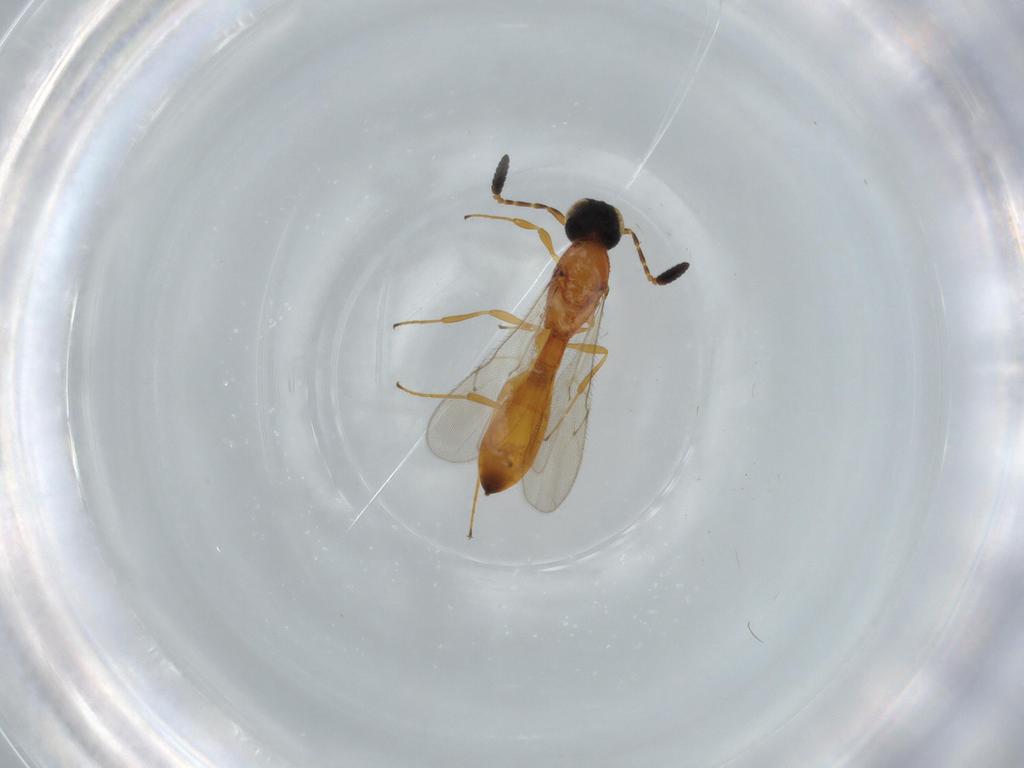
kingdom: Animalia
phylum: Arthropoda
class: Insecta
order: Hymenoptera
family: Scelionidae
